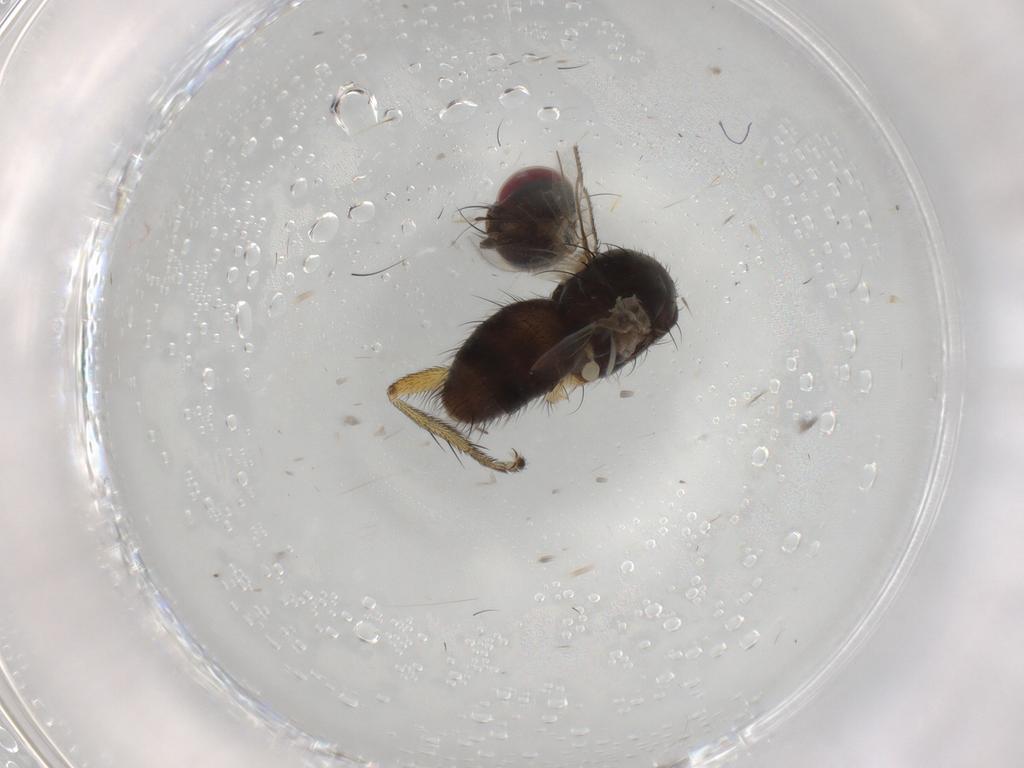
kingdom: Animalia
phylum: Arthropoda
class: Insecta
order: Diptera
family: Muscidae
